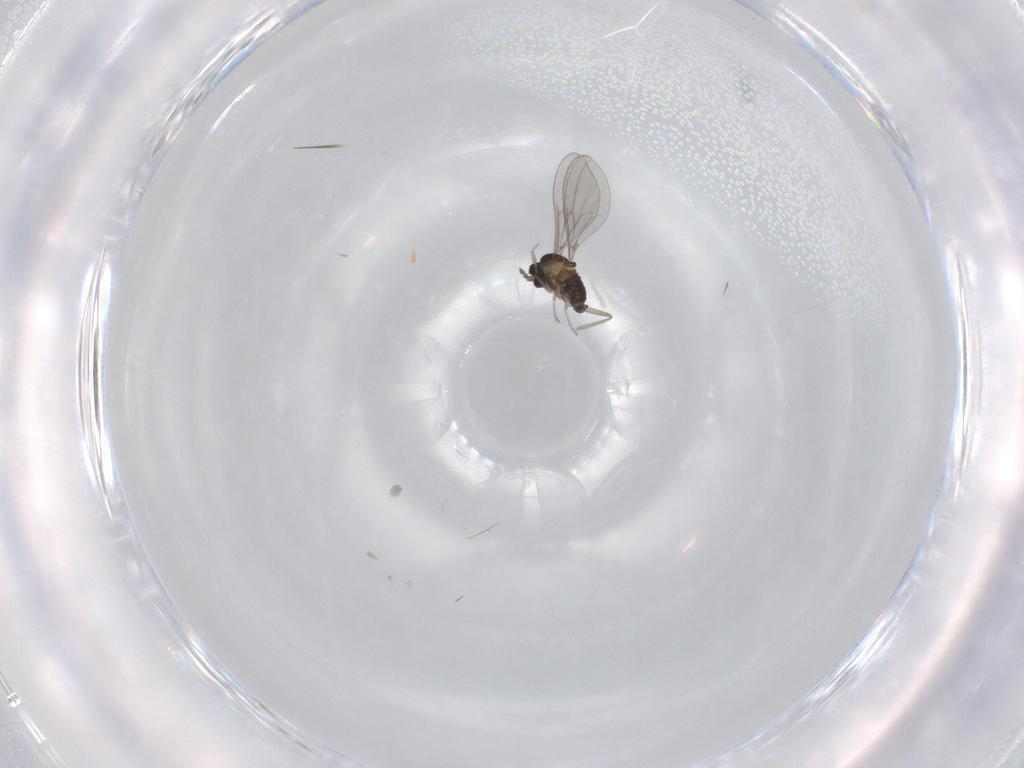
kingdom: Animalia
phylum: Arthropoda
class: Insecta
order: Diptera
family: Cecidomyiidae
